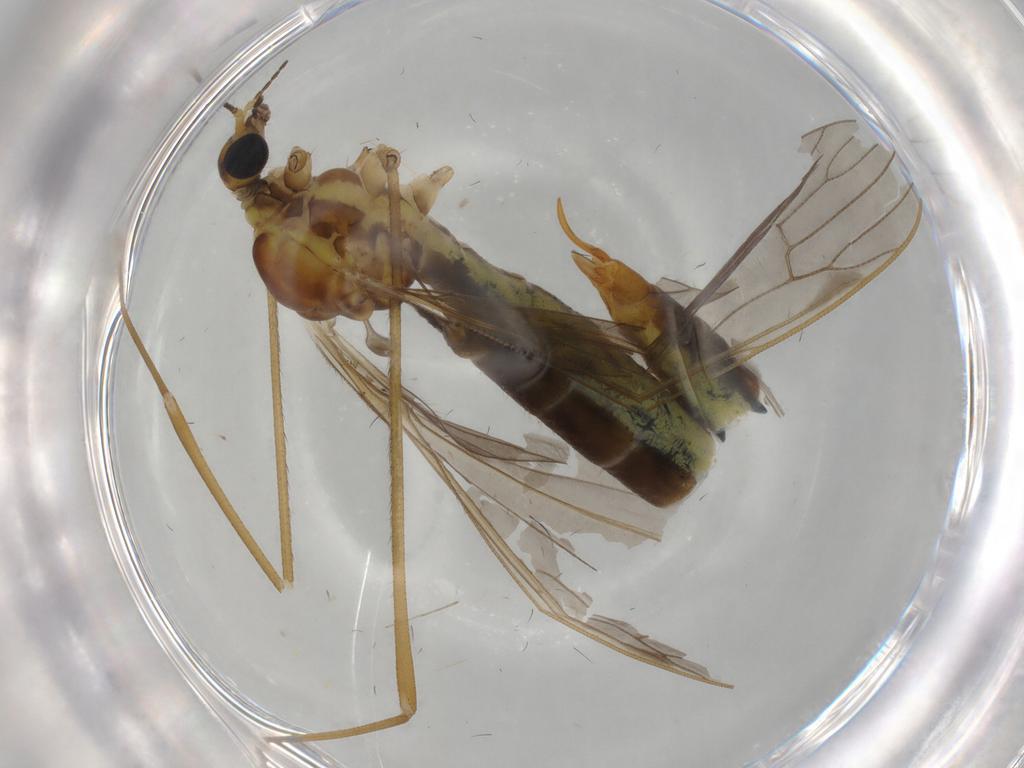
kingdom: Animalia
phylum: Arthropoda
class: Insecta
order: Diptera
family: Limoniidae
